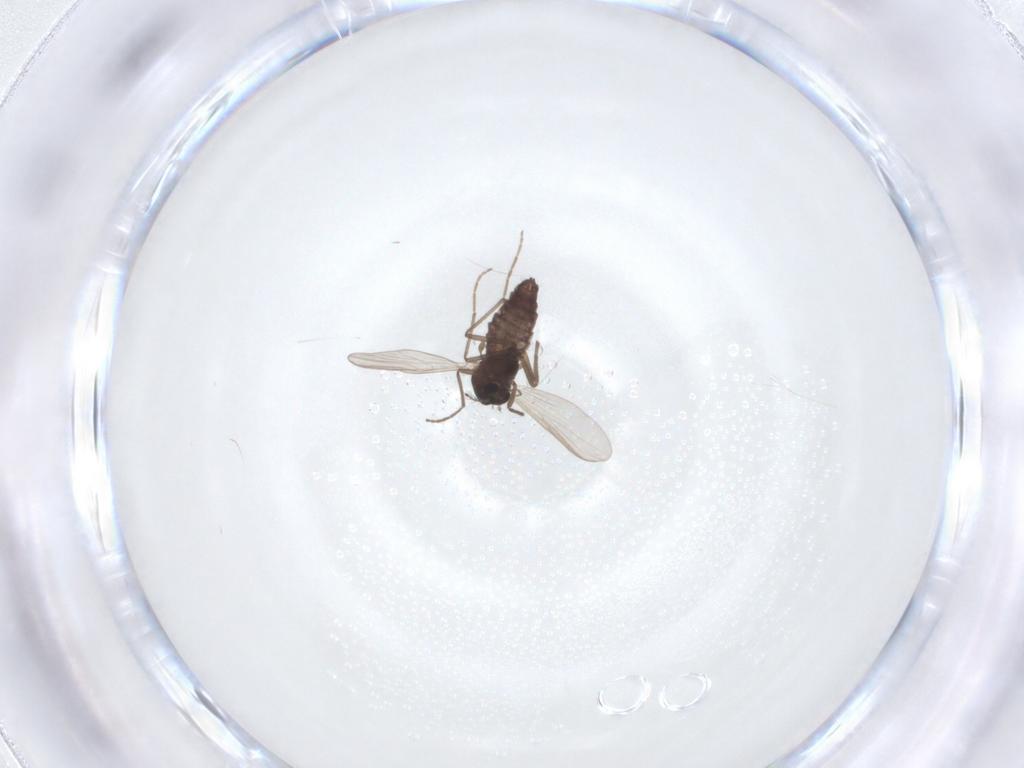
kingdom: Animalia
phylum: Arthropoda
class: Insecta
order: Diptera
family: Chironomidae
